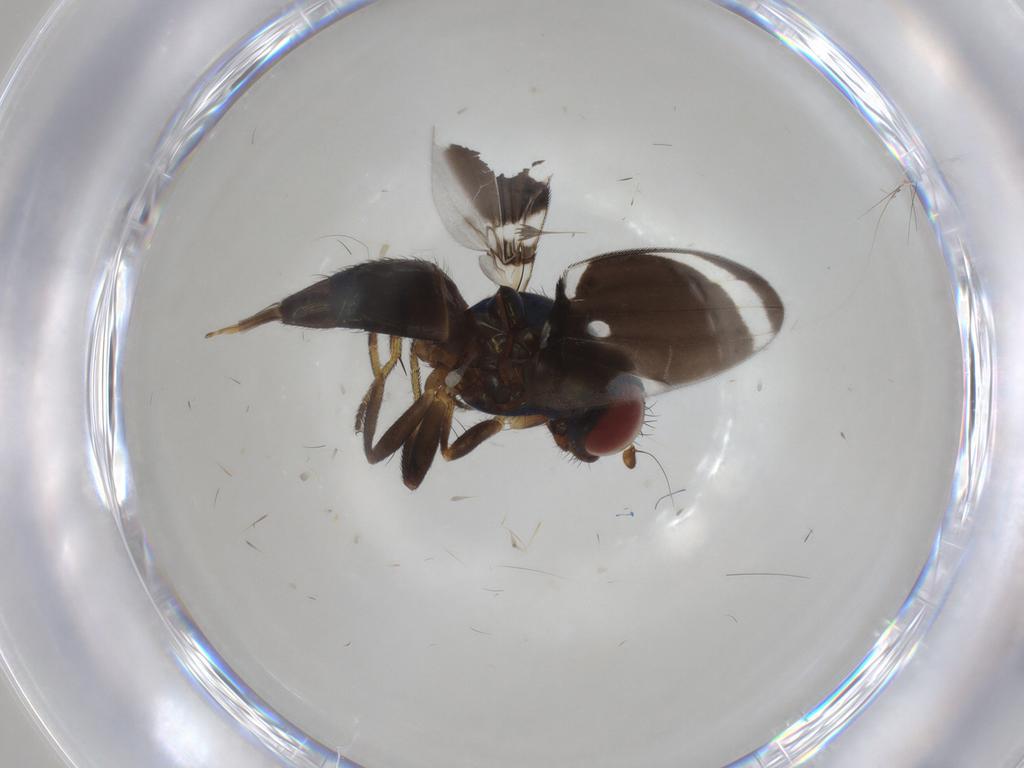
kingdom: Animalia
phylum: Arthropoda
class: Insecta
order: Diptera
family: Ulidiidae
